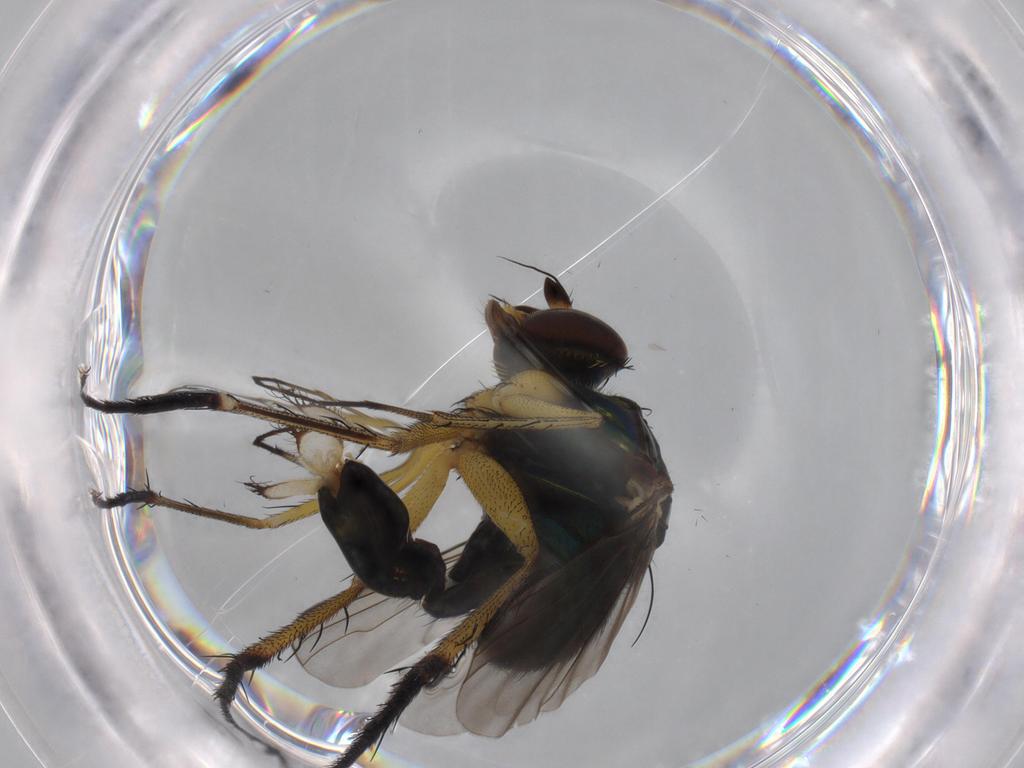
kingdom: Animalia
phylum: Arthropoda
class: Insecta
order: Diptera
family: Dolichopodidae
